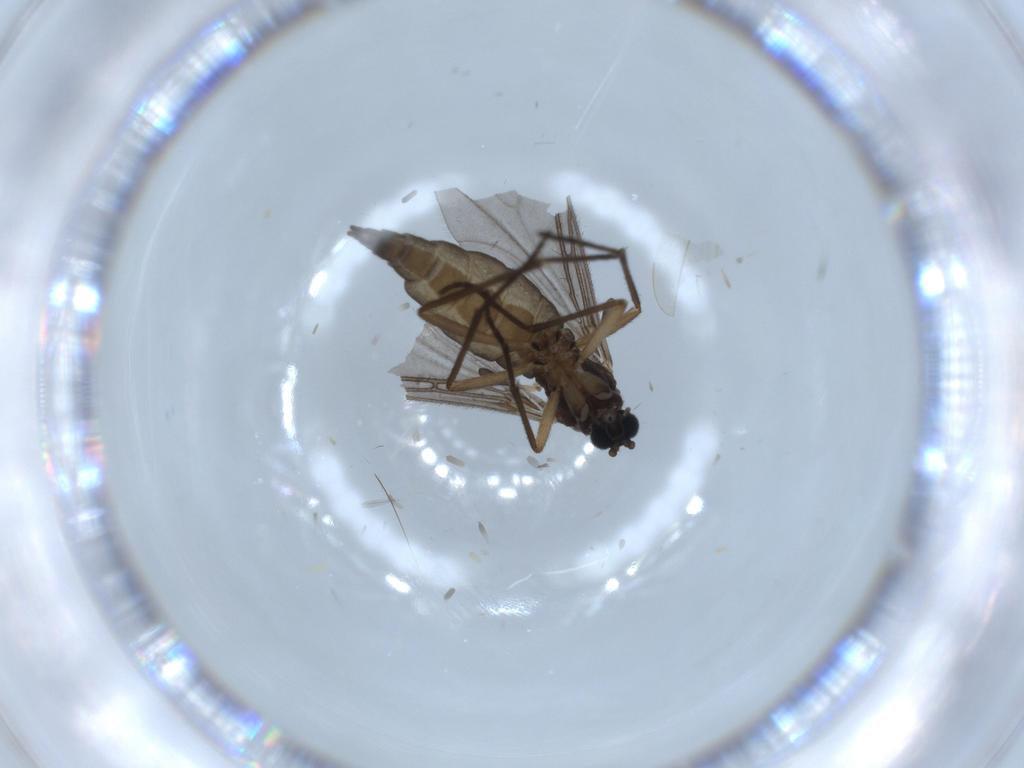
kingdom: Animalia
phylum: Arthropoda
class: Insecta
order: Diptera
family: Sciaridae
